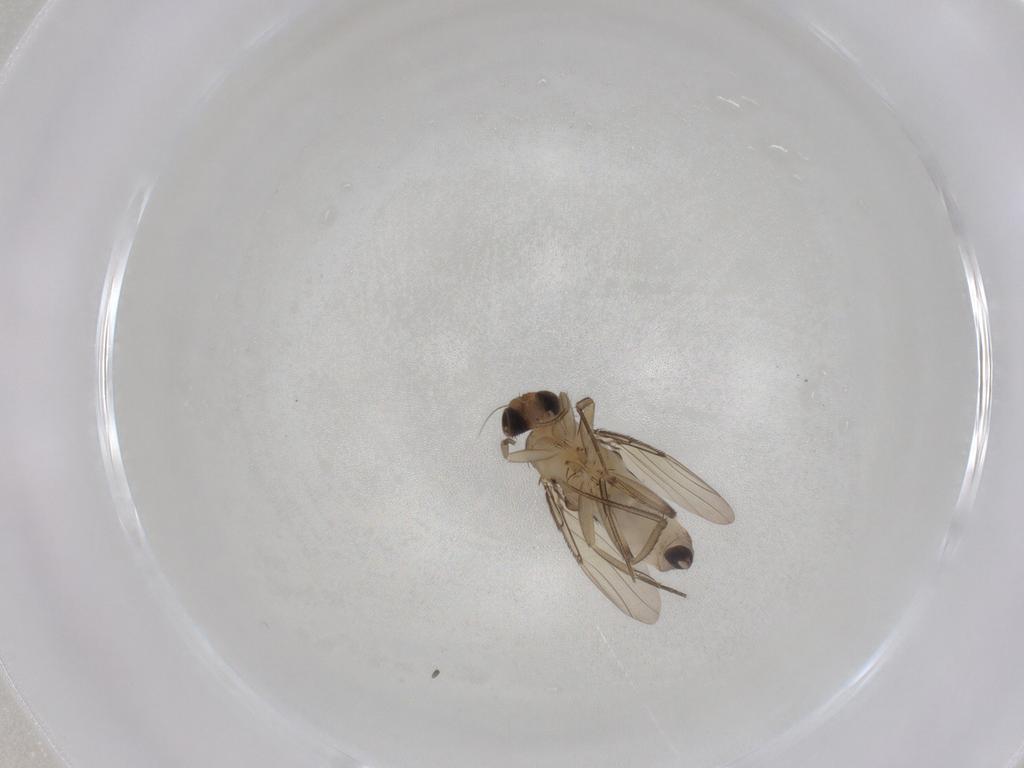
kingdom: Animalia
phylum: Arthropoda
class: Insecta
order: Diptera
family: Phoridae
